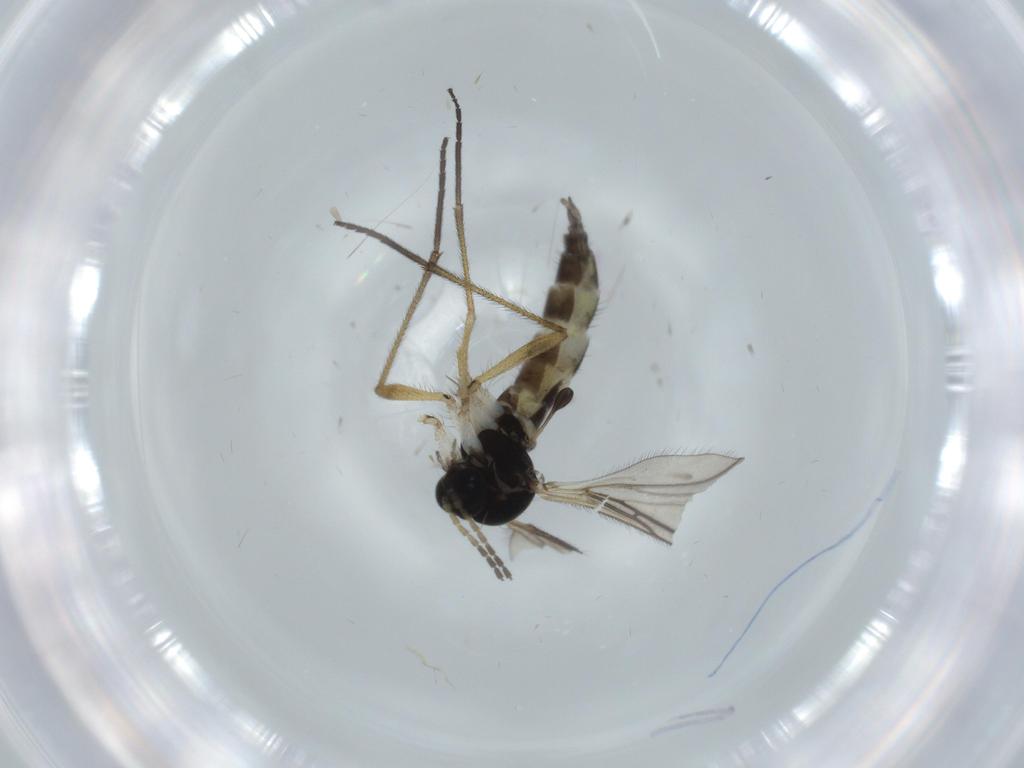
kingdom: Animalia
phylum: Arthropoda
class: Insecta
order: Diptera
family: Sciaridae
